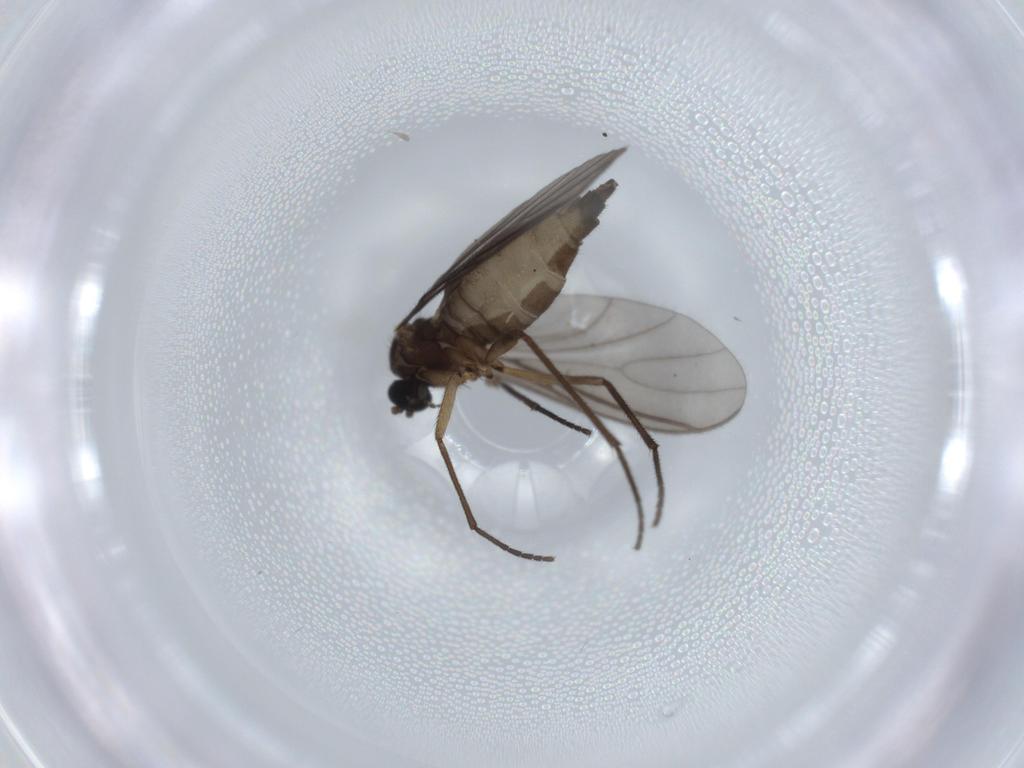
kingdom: Animalia
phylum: Arthropoda
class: Insecta
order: Diptera
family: Sciaridae
